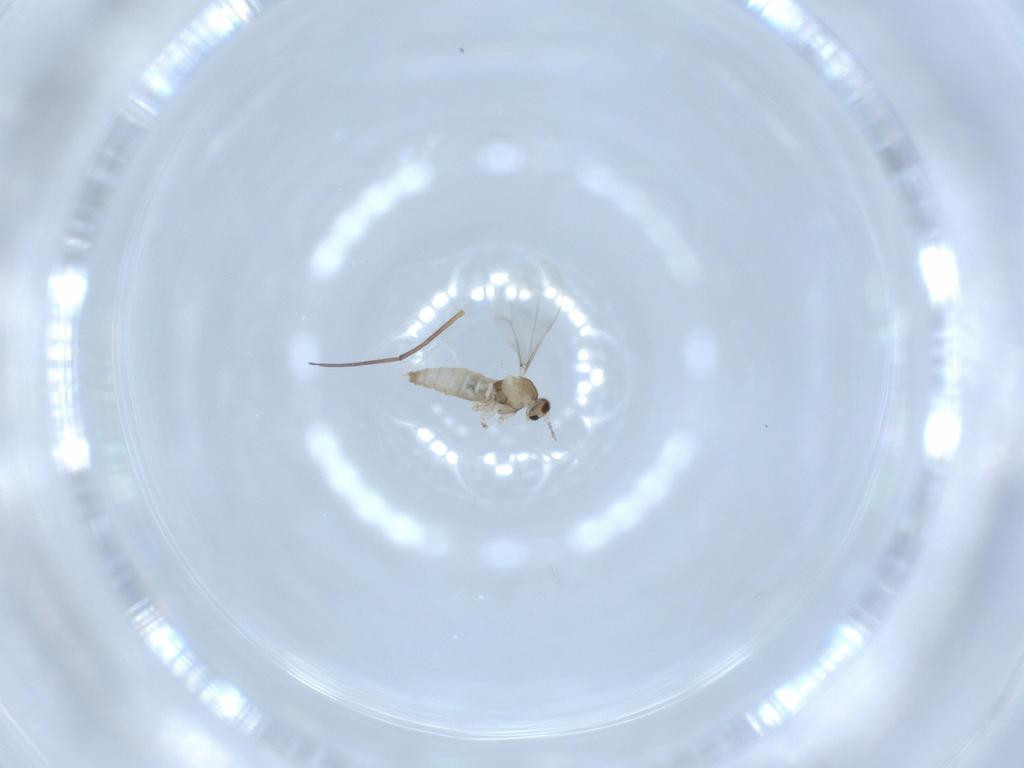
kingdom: Animalia
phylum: Arthropoda
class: Insecta
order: Diptera
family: Cecidomyiidae
